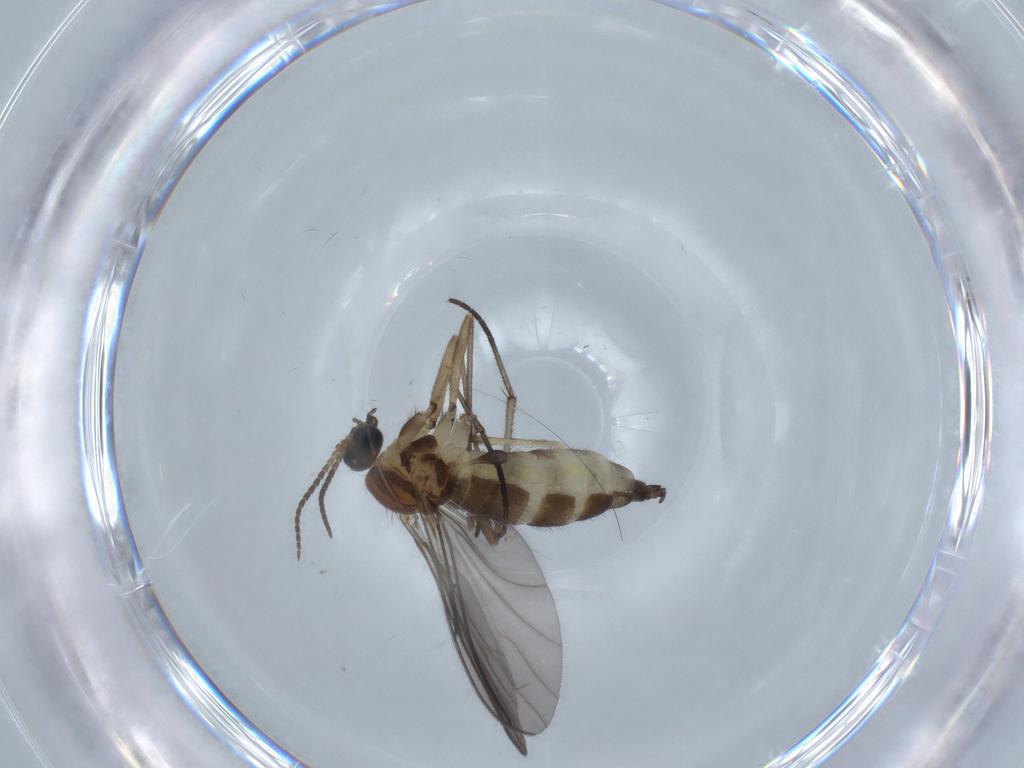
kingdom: Animalia
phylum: Arthropoda
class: Insecta
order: Diptera
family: Sciaridae
